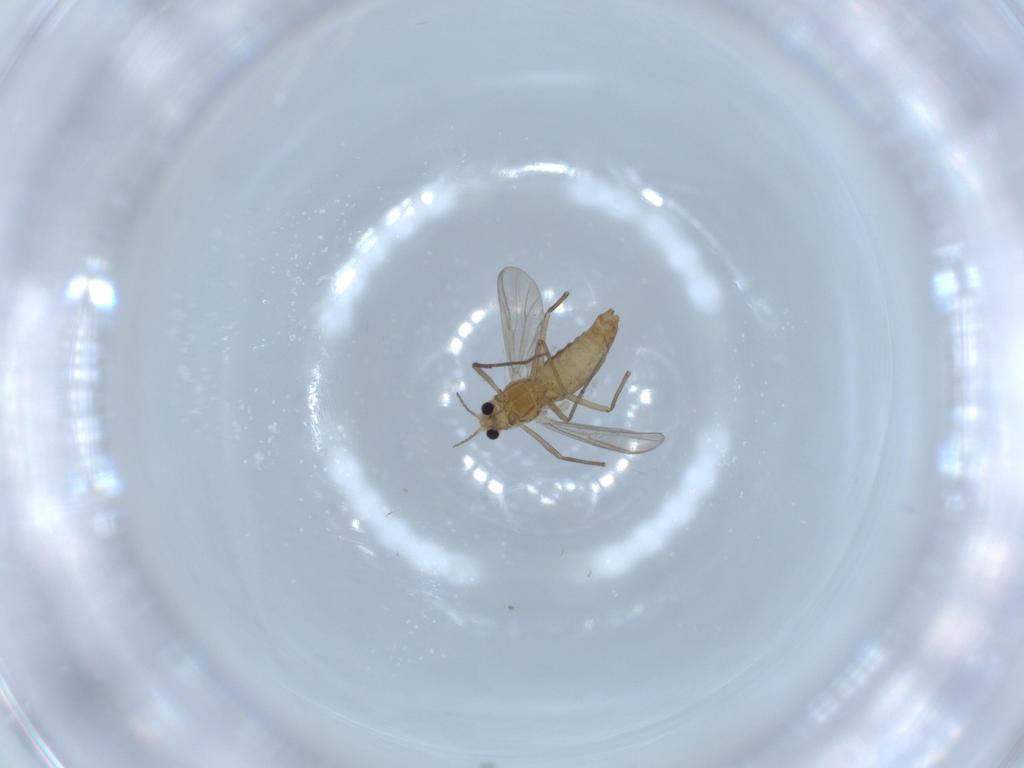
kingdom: Animalia
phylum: Arthropoda
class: Insecta
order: Diptera
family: Chironomidae
